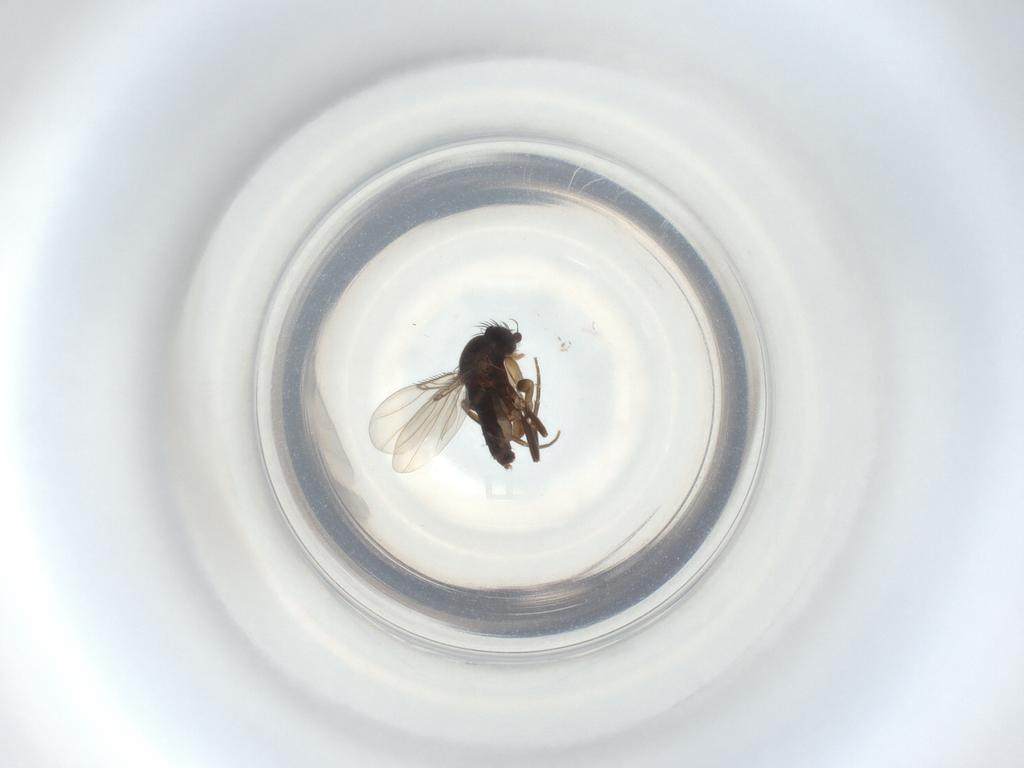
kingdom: Animalia
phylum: Arthropoda
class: Insecta
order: Diptera
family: Phoridae
